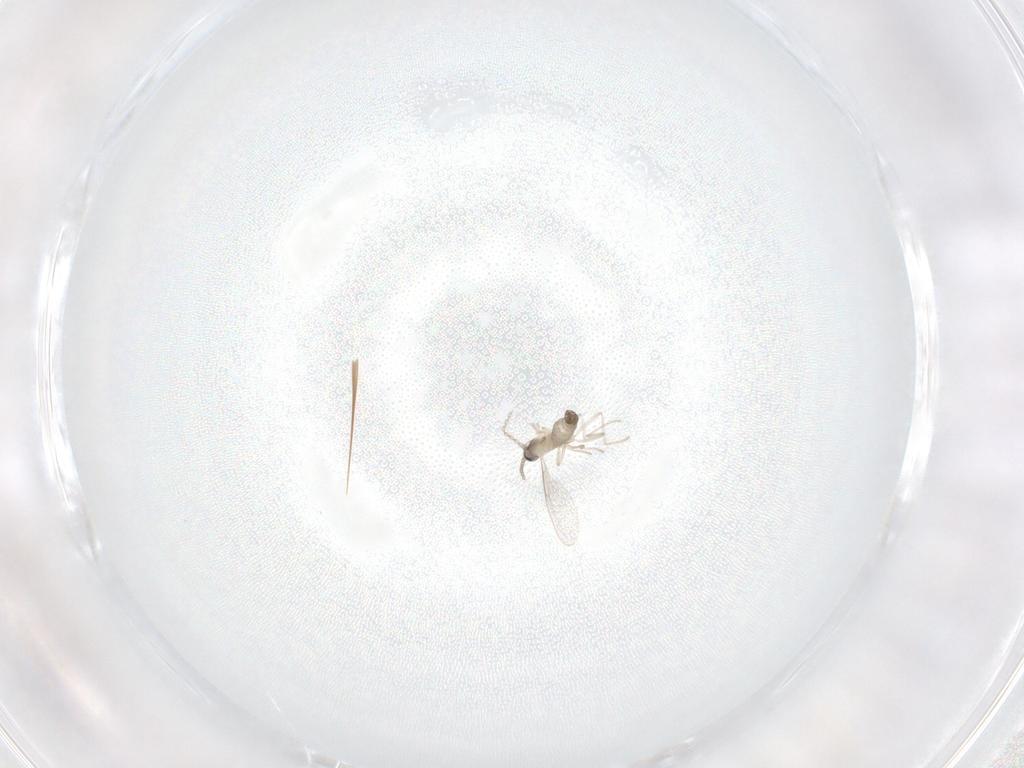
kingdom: Animalia
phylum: Arthropoda
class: Insecta
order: Diptera
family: Cecidomyiidae
